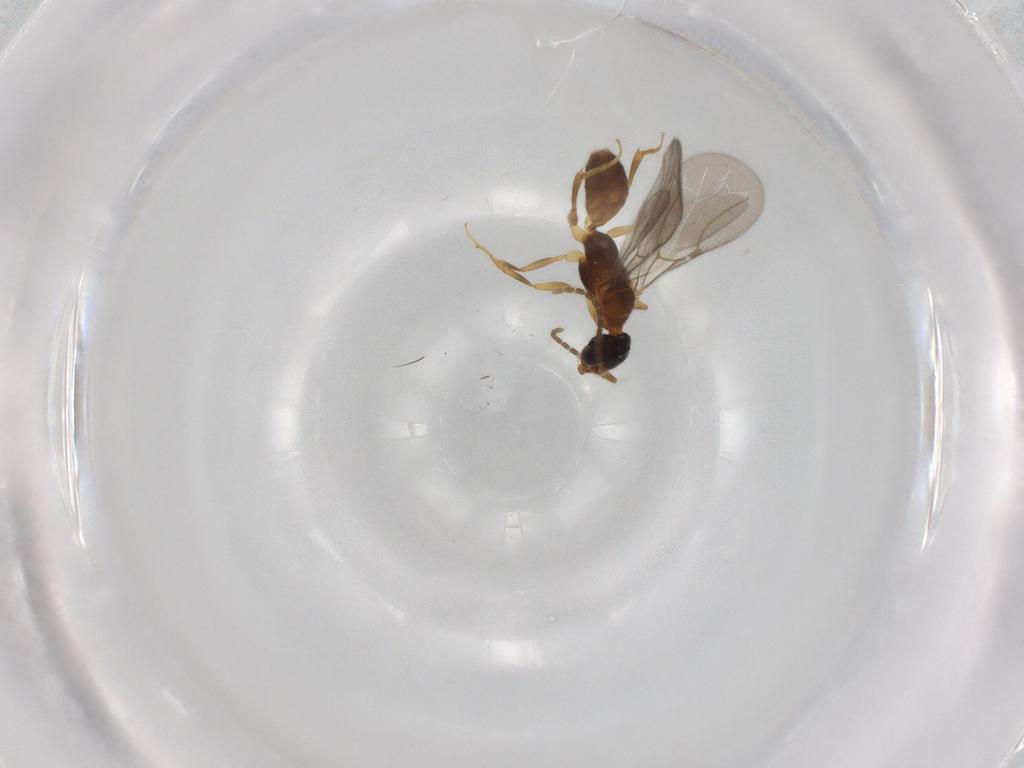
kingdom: Animalia
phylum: Arthropoda
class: Insecta
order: Hymenoptera
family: Bethylidae
